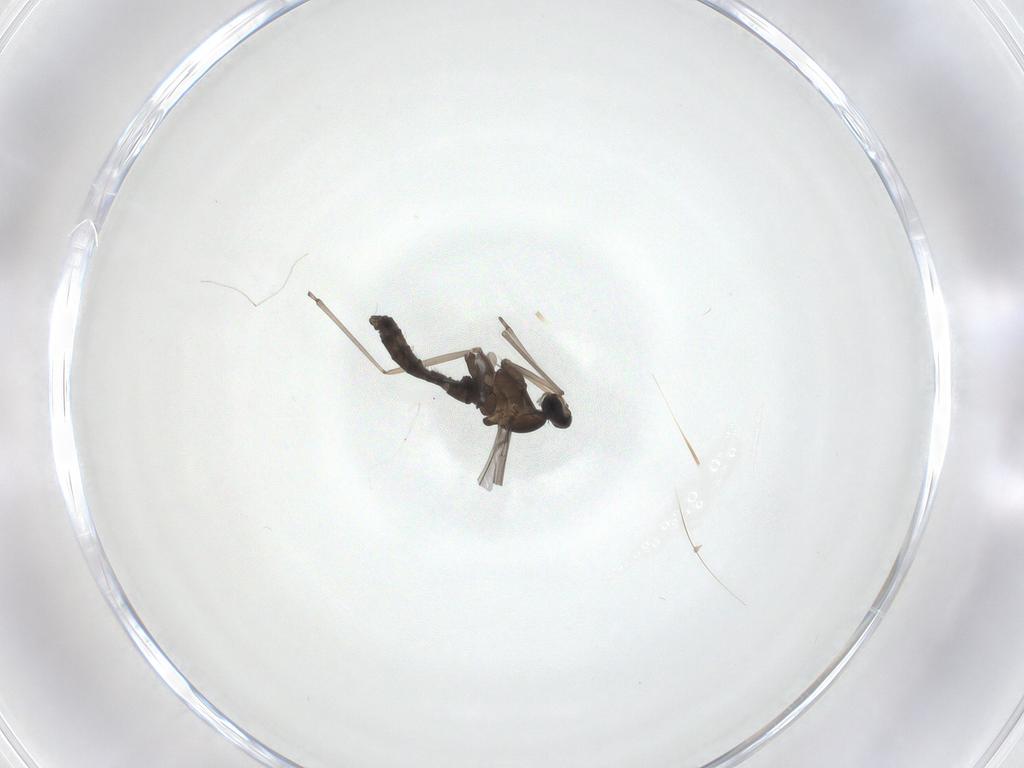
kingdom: Animalia
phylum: Arthropoda
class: Insecta
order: Diptera
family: Cecidomyiidae
